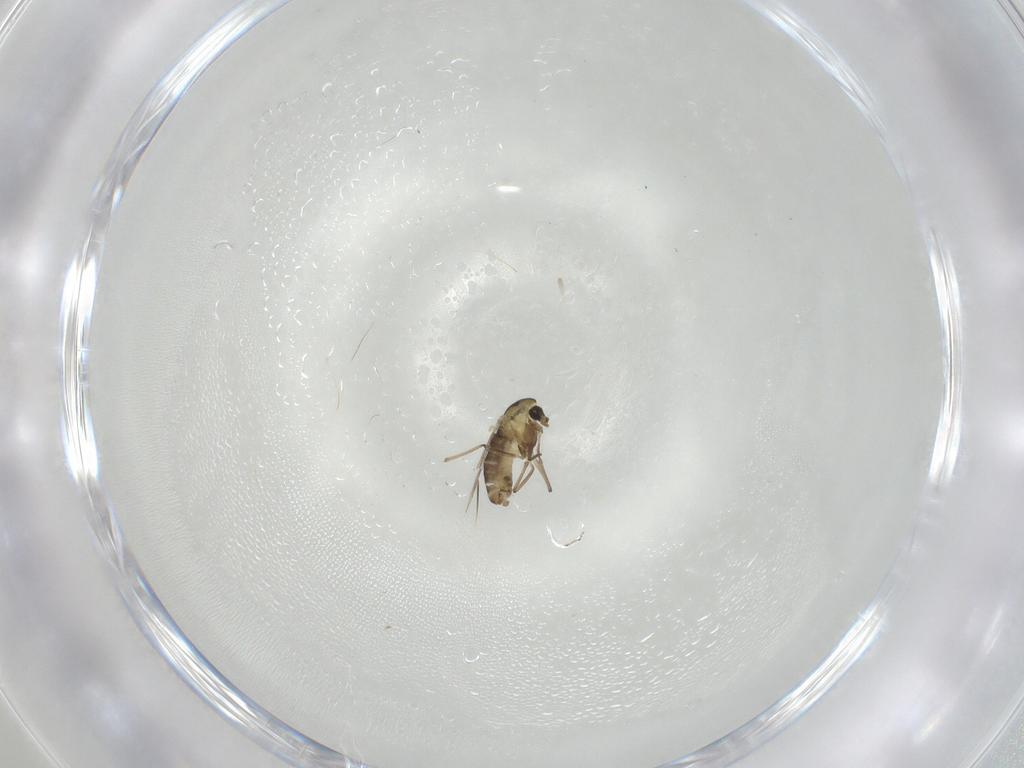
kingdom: Animalia
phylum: Arthropoda
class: Insecta
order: Diptera
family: Chironomidae
